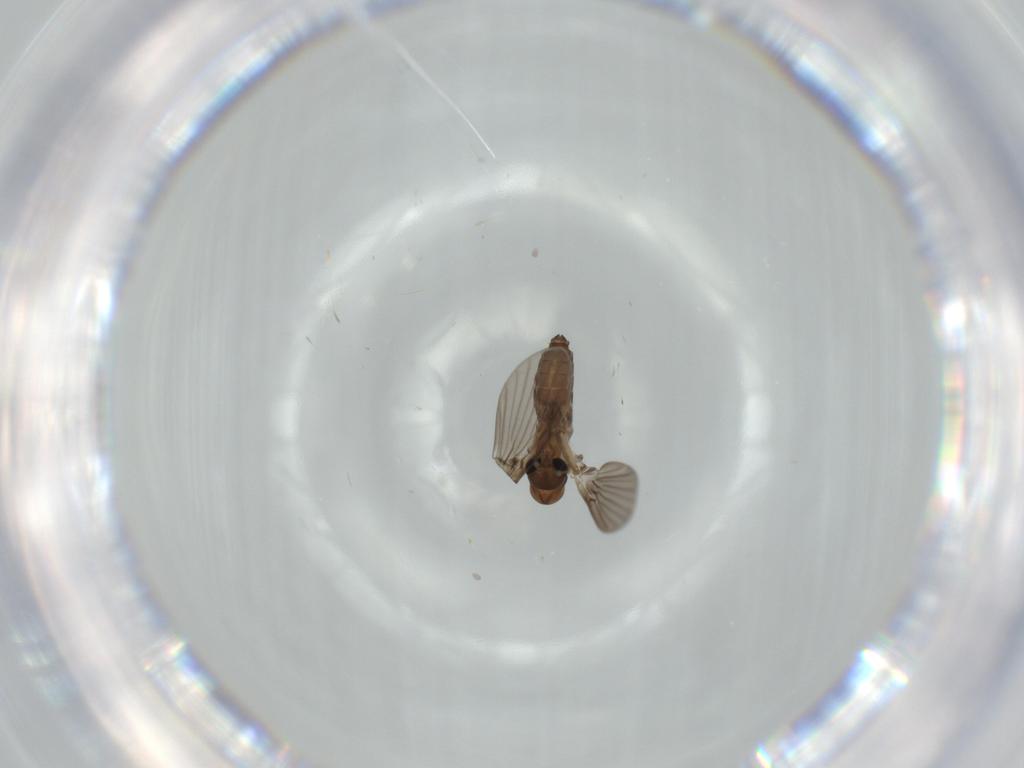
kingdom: Animalia
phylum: Arthropoda
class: Insecta
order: Diptera
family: Psychodidae
